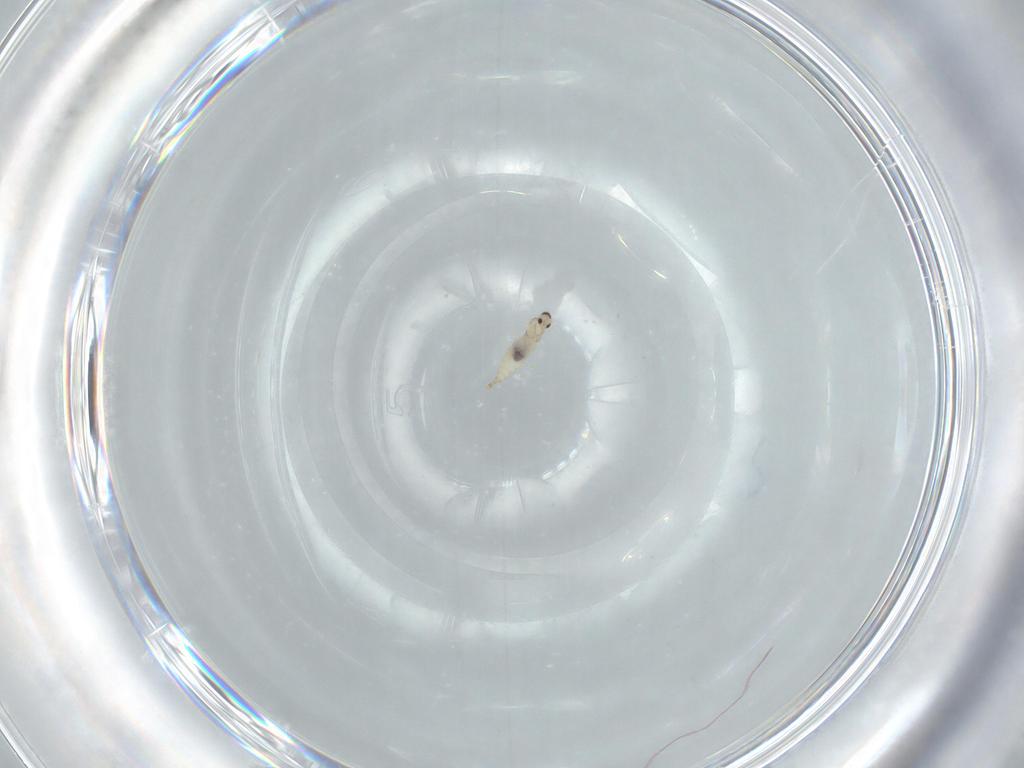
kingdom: Animalia
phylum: Arthropoda
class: Insecta
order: Diptera
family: Cecidomyiidae
